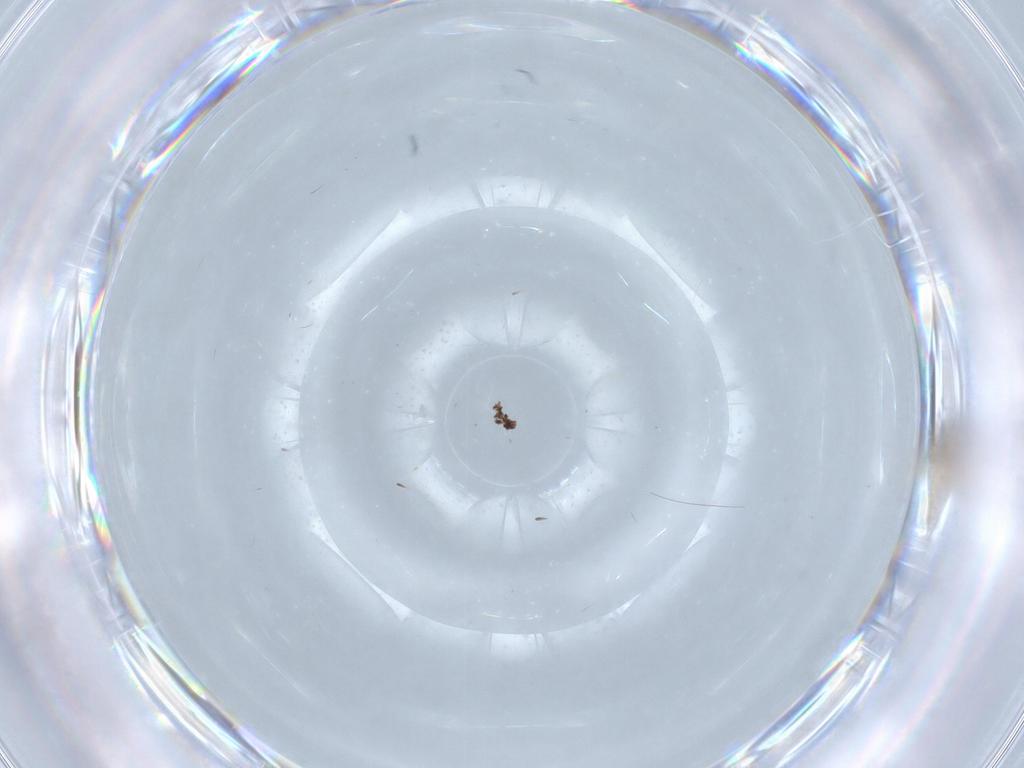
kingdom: Animalia
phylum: Arthropoda
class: Insecta
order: Diptera
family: Cecidomyiidae
